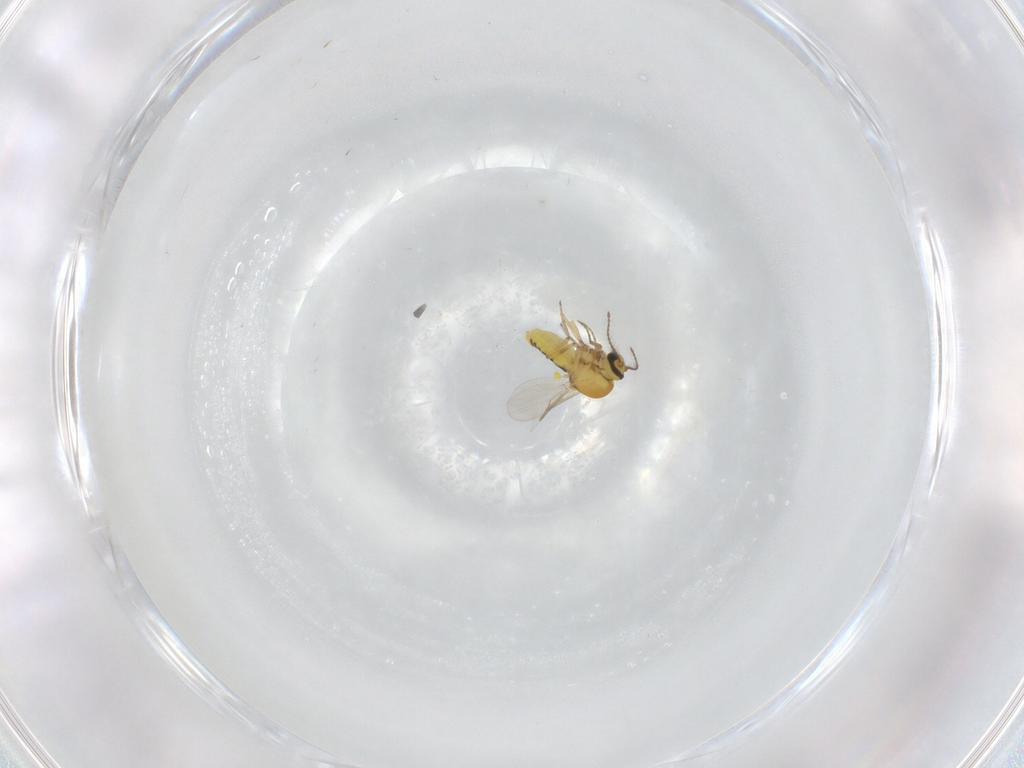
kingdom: Animalia
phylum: Arthropoda
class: Insecta
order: Diptera
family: Ceratopogonidae
